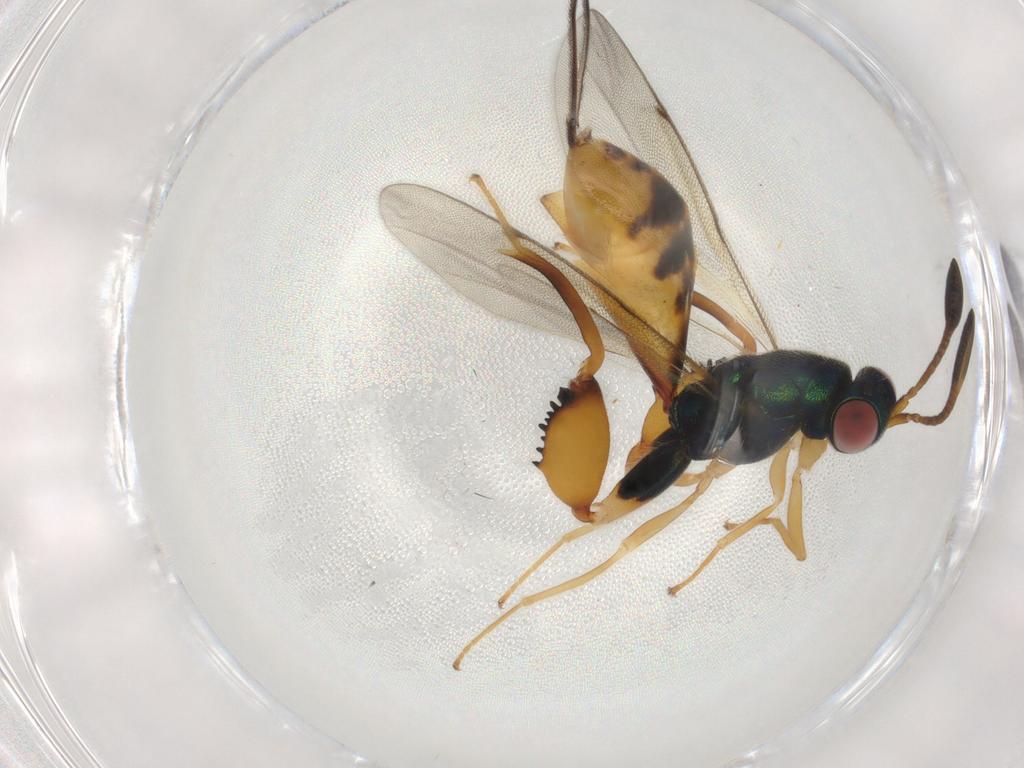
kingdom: Animalia
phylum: Arthropoda
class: Insecta
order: Hymenoptera
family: Torymidae
